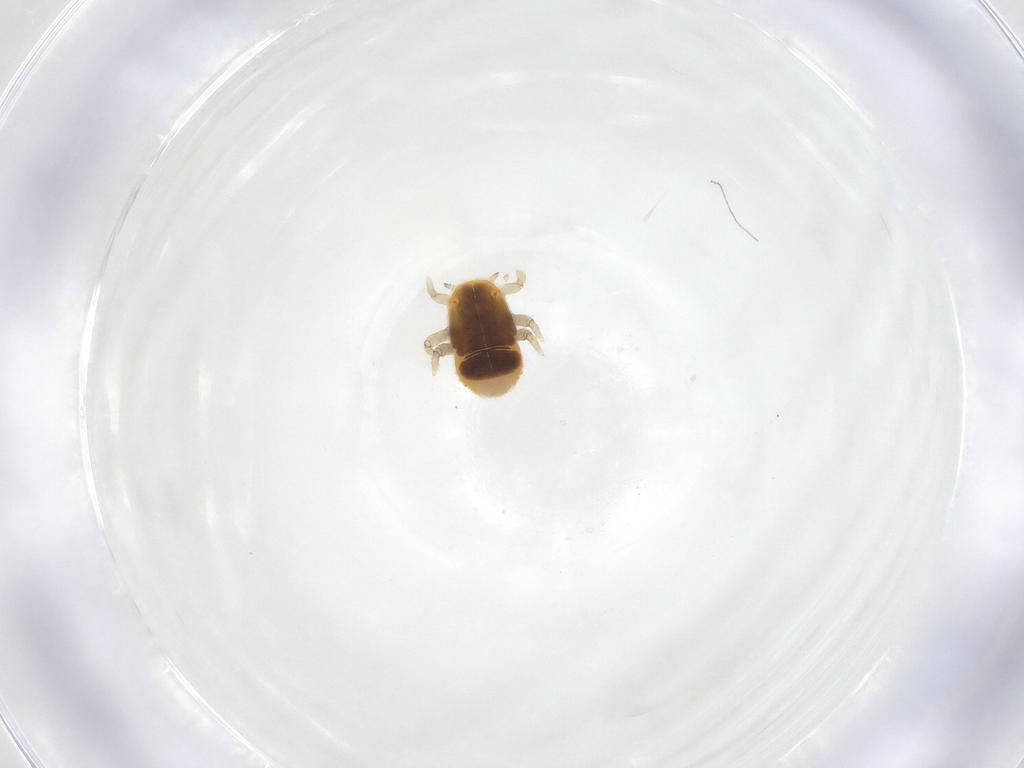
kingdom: Animalia
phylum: Arthropoda
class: Insecta
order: Hemiptera
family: Triozidae
